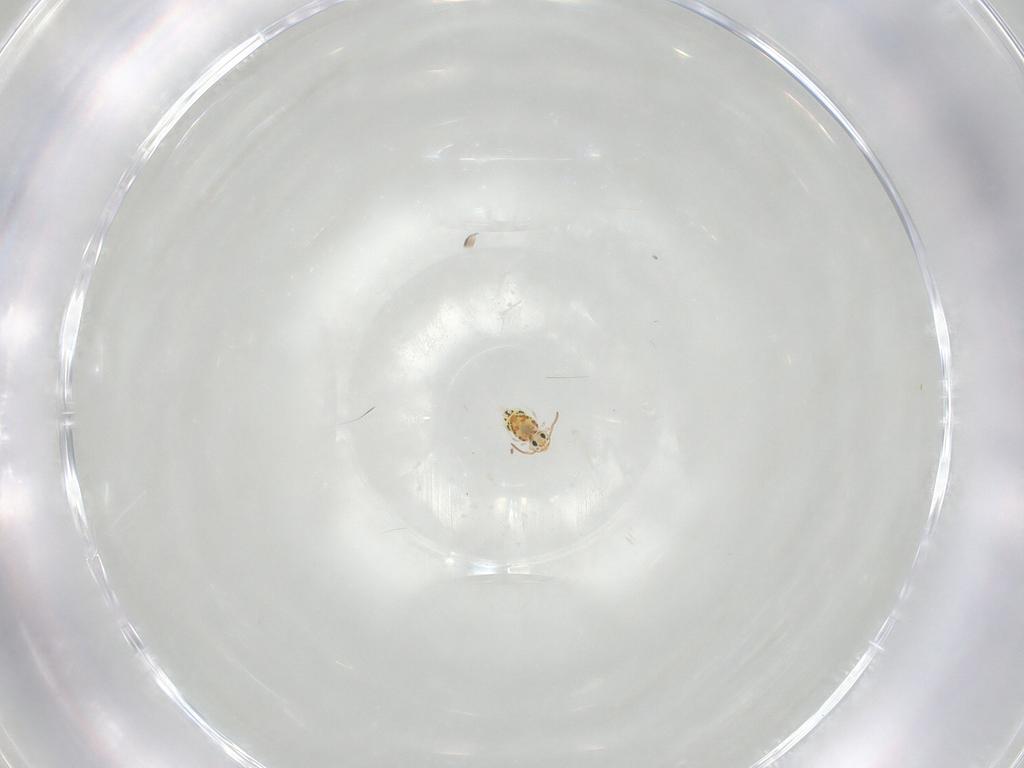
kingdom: Animalia
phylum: Arthropoda
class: Collembola
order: Symphypleona
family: Bourletiellidae
